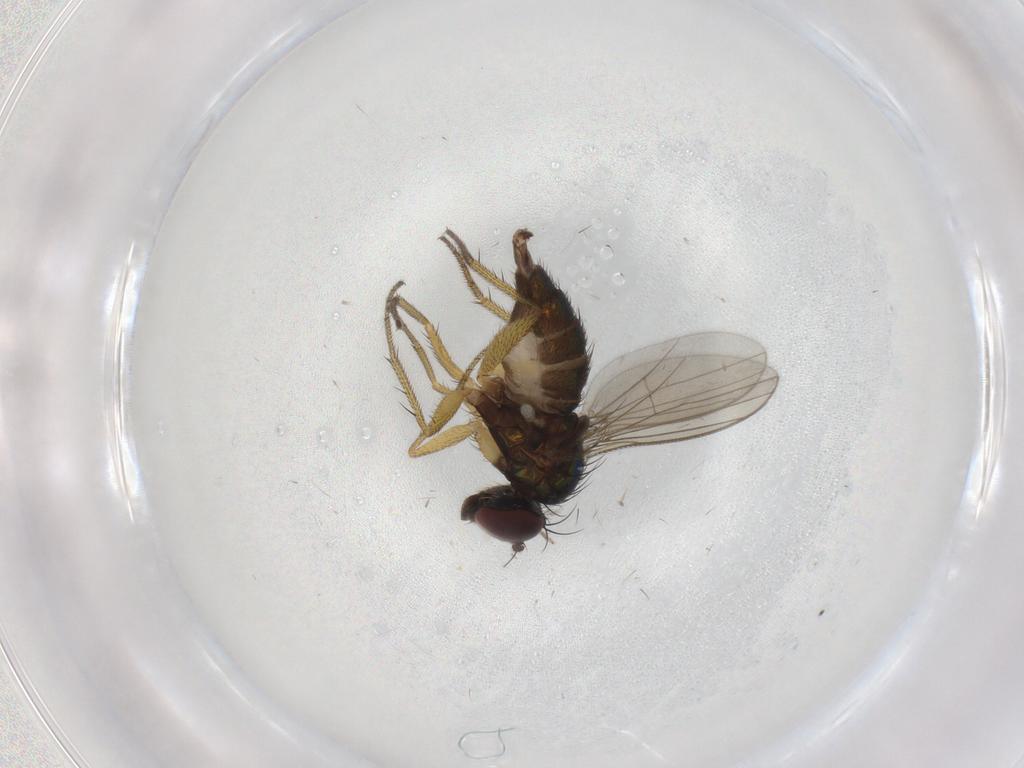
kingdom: Animalia
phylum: Arthropoda
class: Insecta
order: Diptera
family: Dolichopodidae
